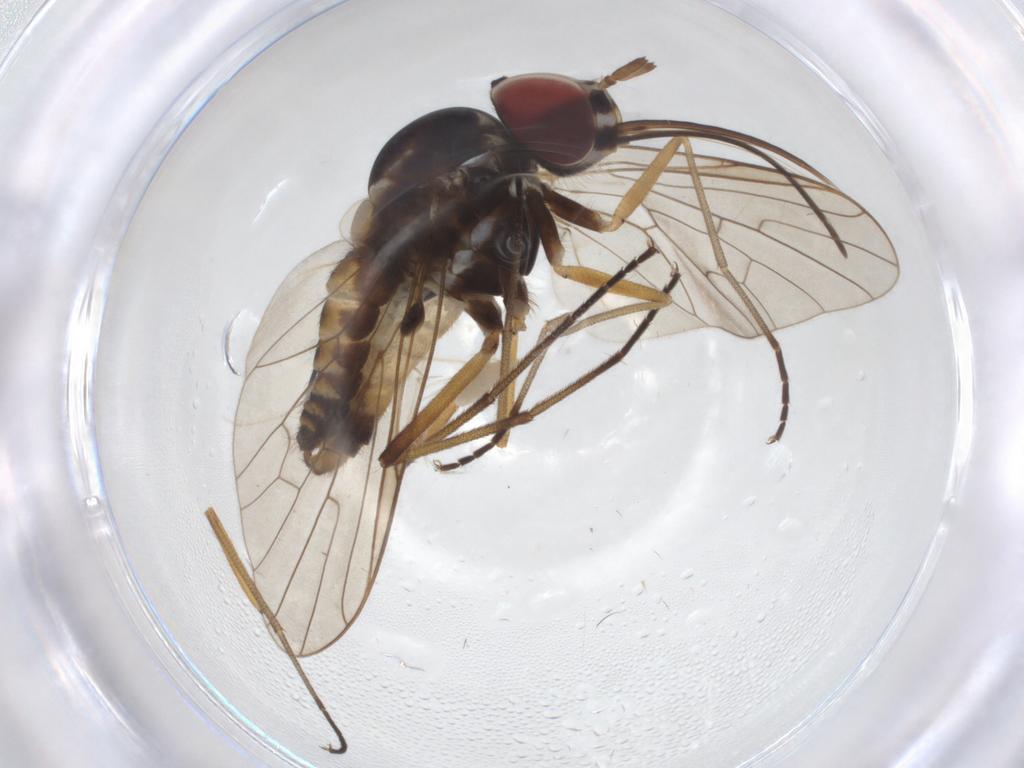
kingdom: Animalia
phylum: Arthropoda
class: Insecta
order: Diptera
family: Bombyliidae
